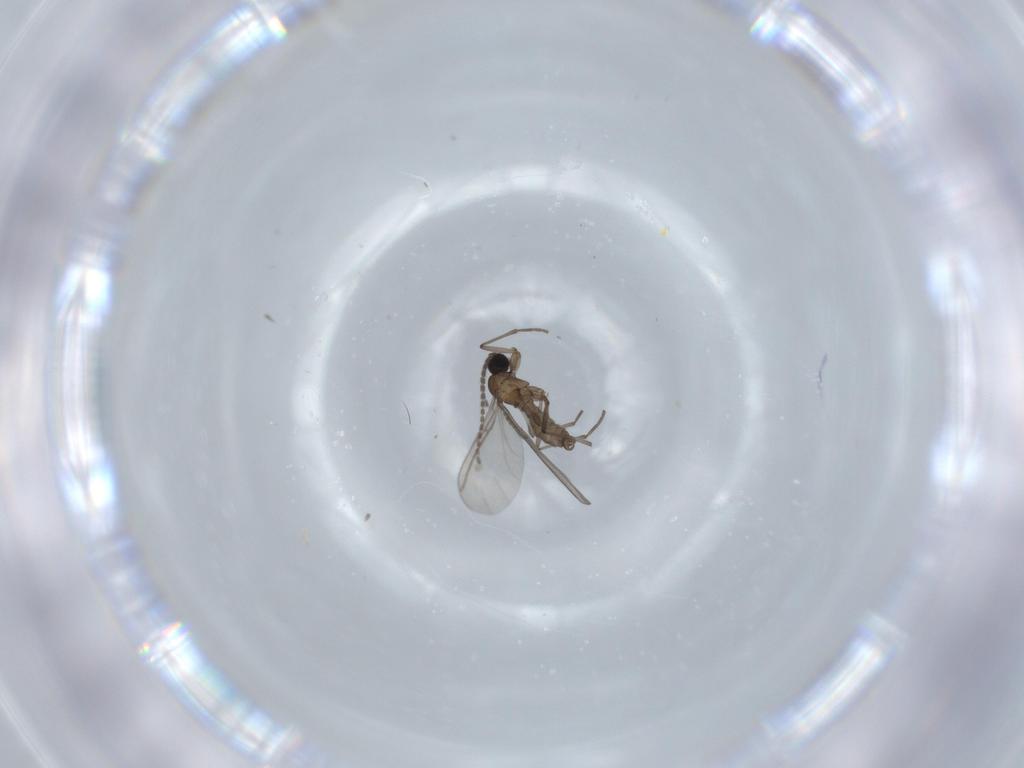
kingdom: Animalia
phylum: Arthropoda
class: Insecta
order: Diptera
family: Sciaridae
